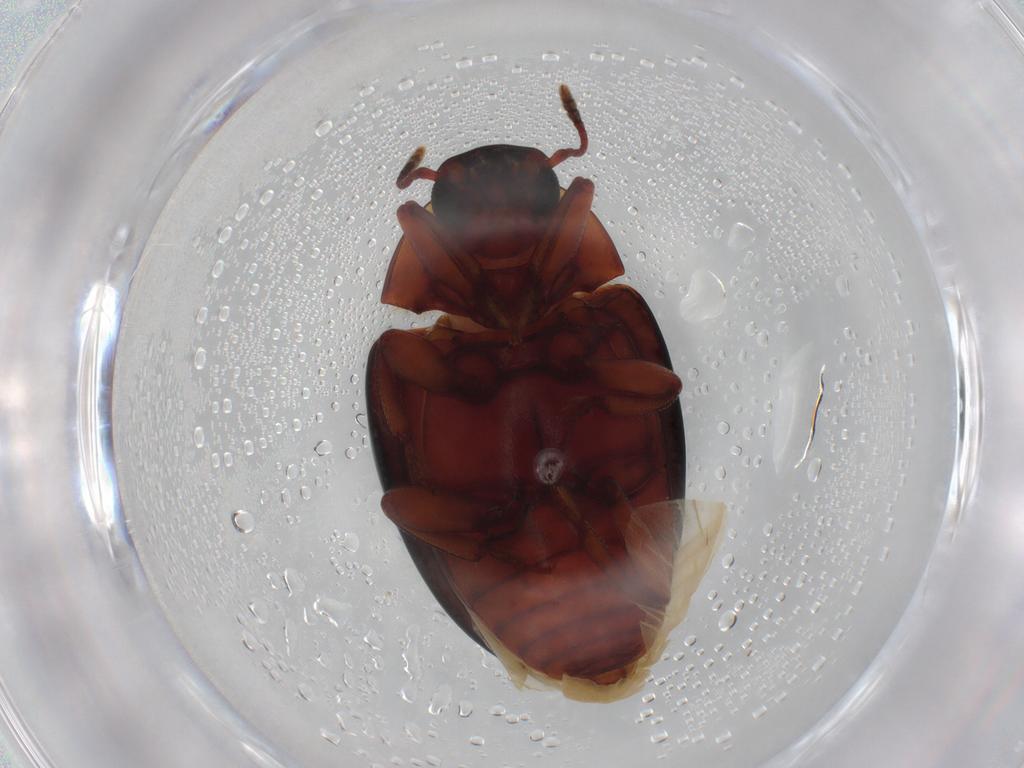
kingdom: Animalia
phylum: Arthropoda
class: Insecta
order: Coleoptera
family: Zopheridae
